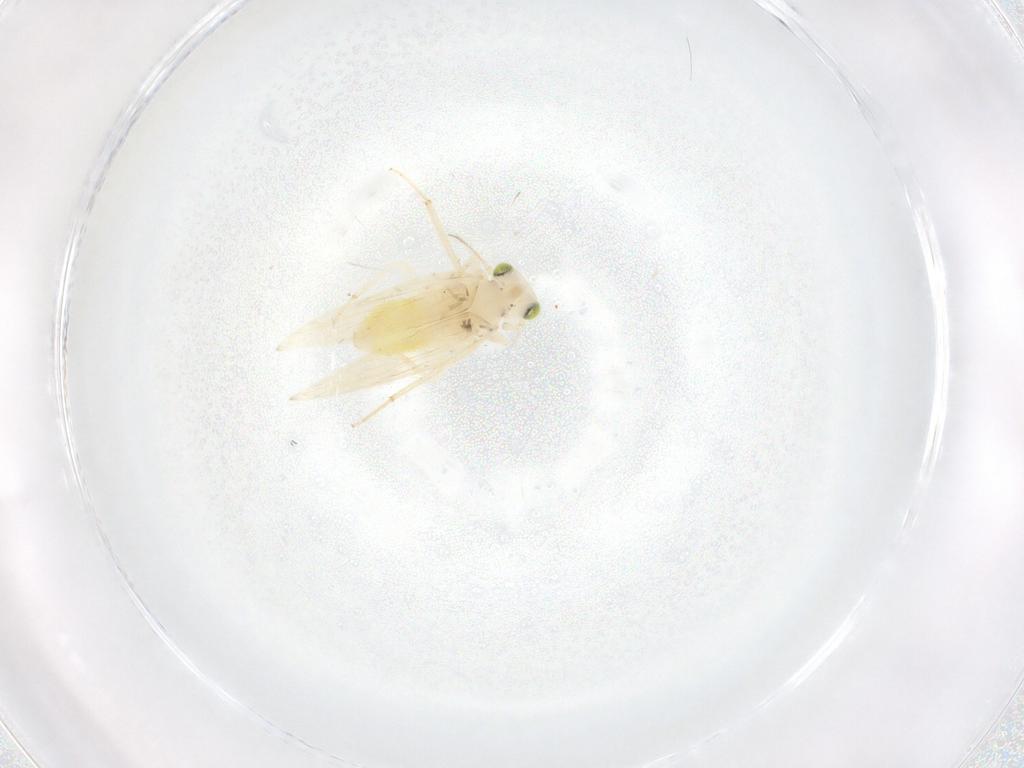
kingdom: Animalia
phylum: Arthropoda
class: Insecta
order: Psocodea
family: Lepidopsocidae
